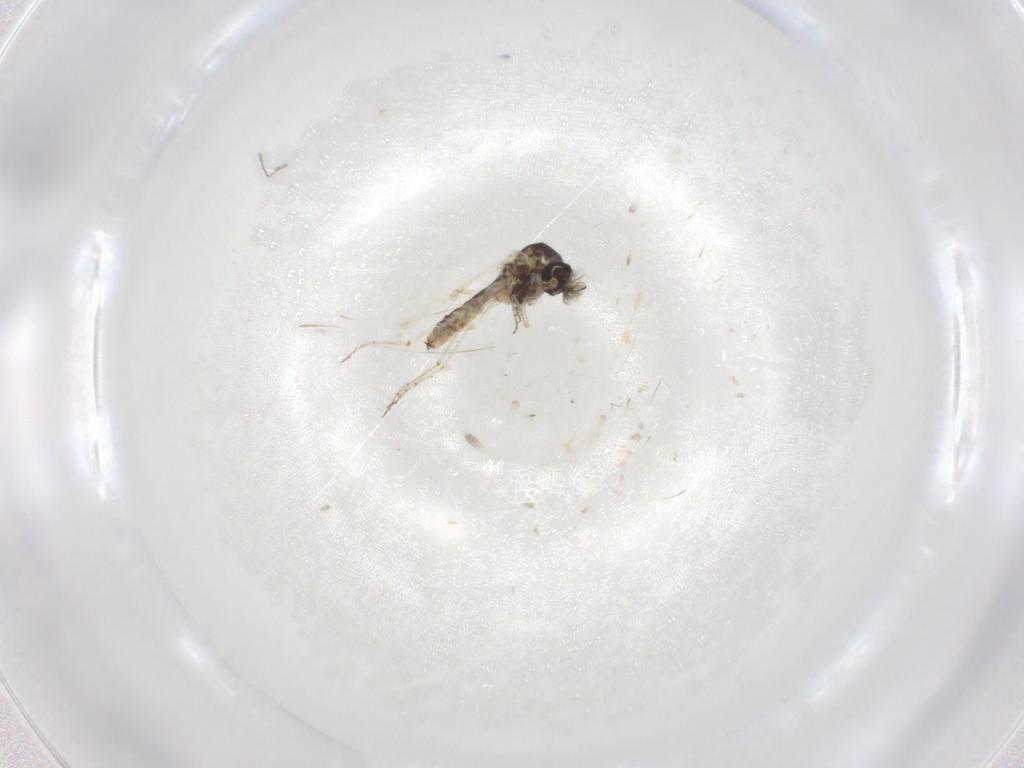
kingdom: Animalia
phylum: Arthropoda
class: Insecta
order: Diptera
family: Ceratopogonidae
